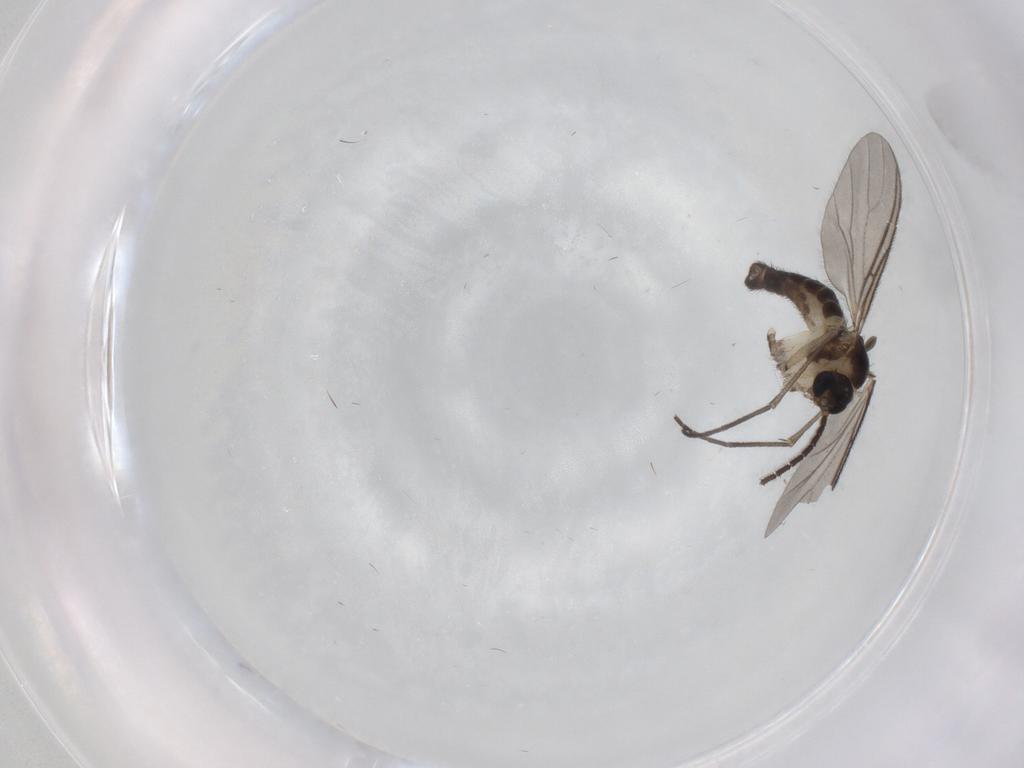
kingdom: Animalia
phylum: Arthropoda
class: Insecta
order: Diptera
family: Sciaridae
